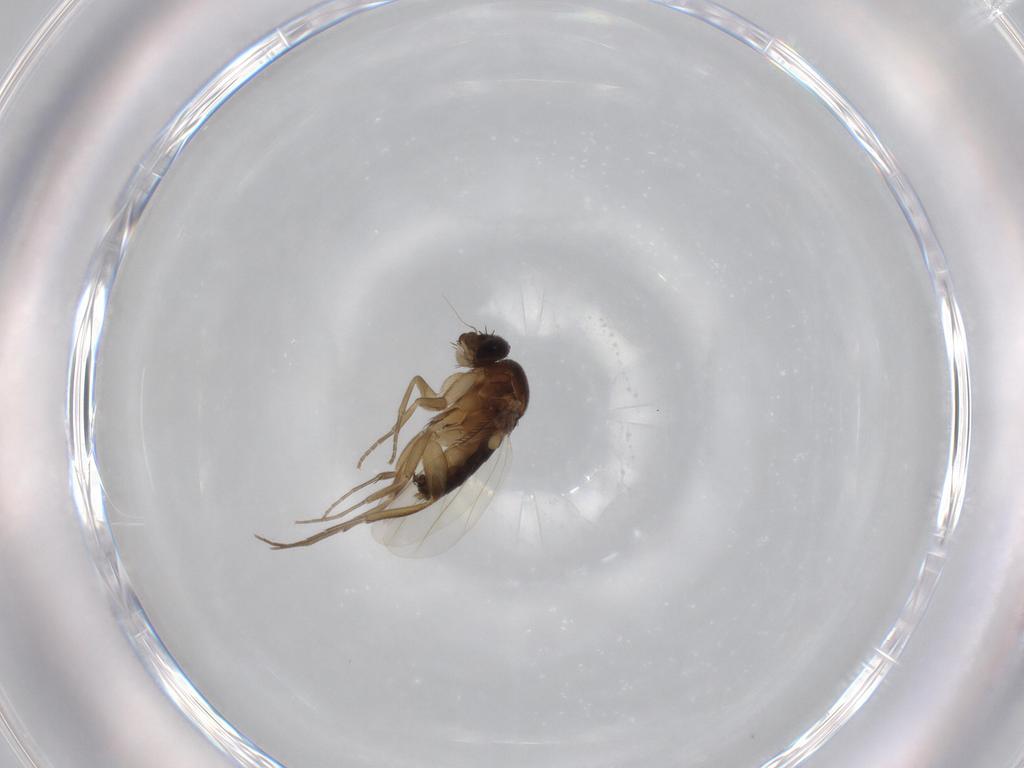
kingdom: Animalia
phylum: Arthropoda
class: Insecta
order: Diptera
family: Phoridae
